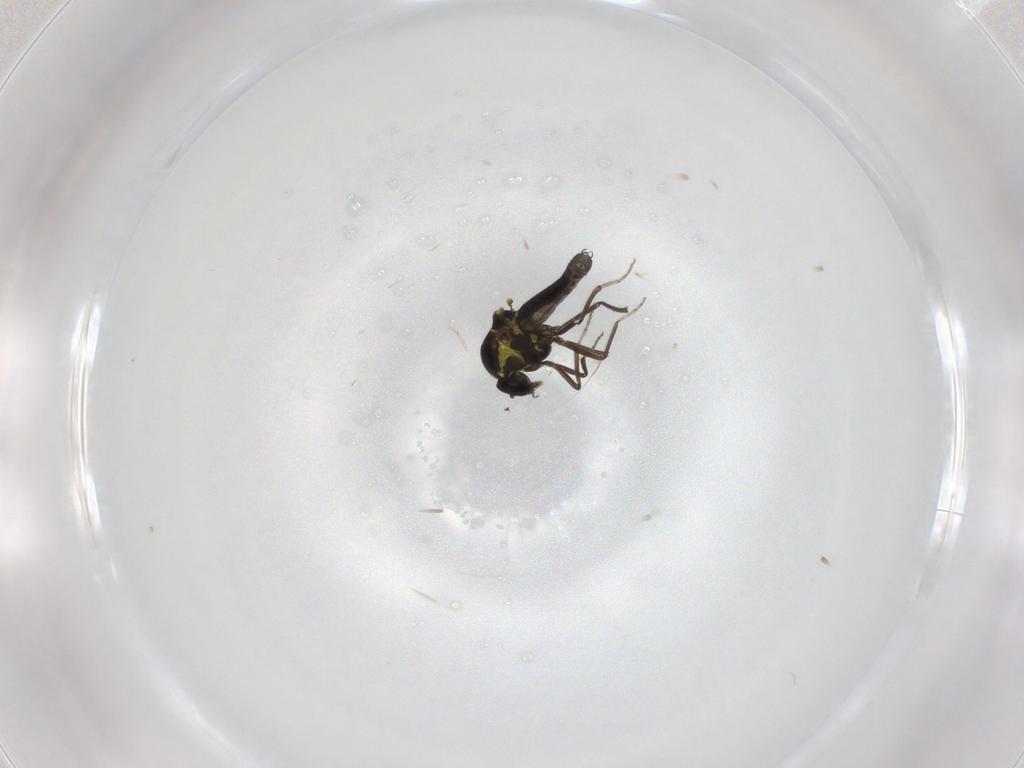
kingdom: Animalia
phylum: Arthropoda
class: Insecta
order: Diptera
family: Ceratopogonidae
